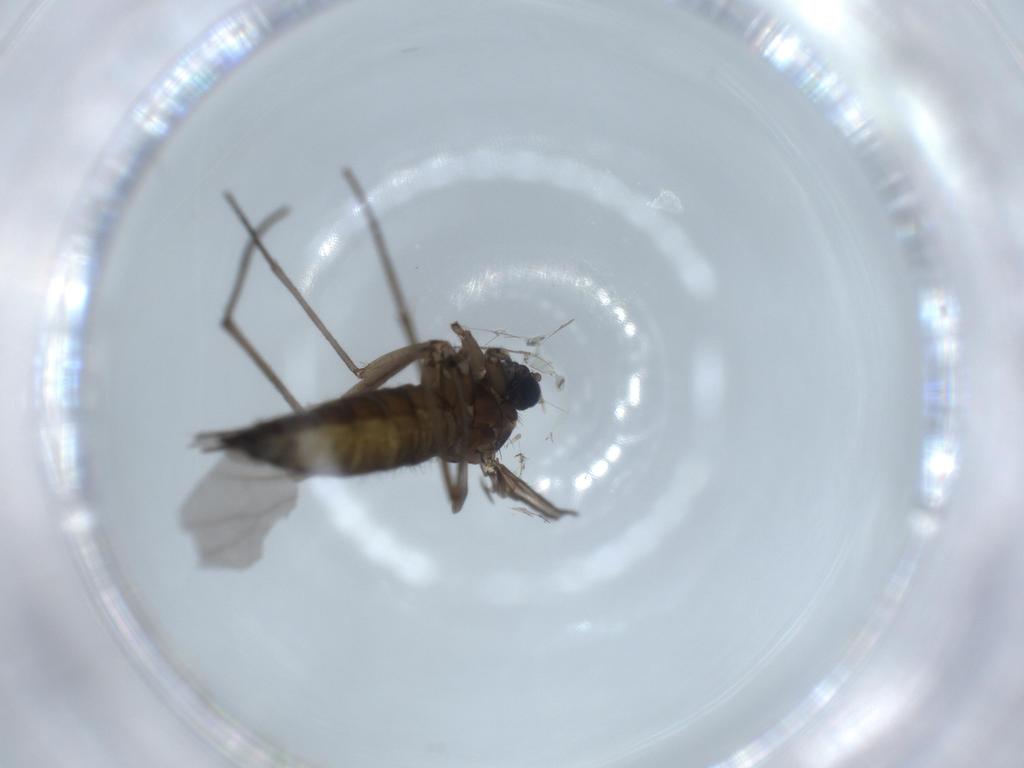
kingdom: Animalia
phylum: Arthropoda
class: Insecta
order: Diptera
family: Sciaridae
